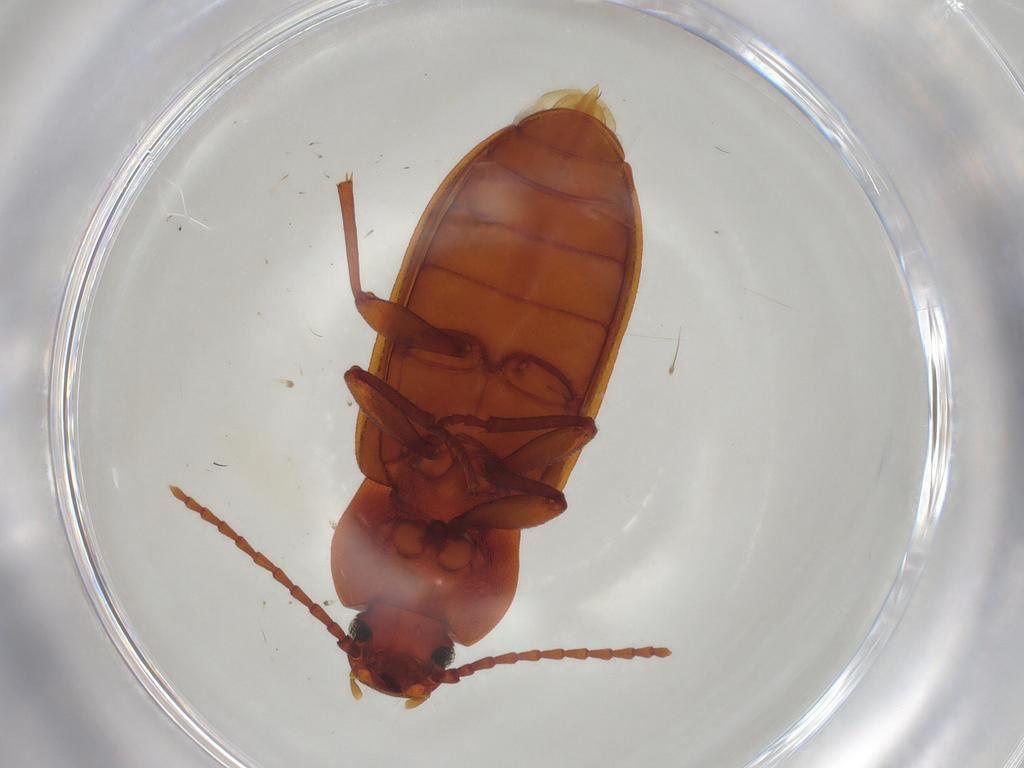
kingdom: Animalia
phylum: Arthropoda
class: Insecta
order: Coleoptera
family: Tenebrionidae
